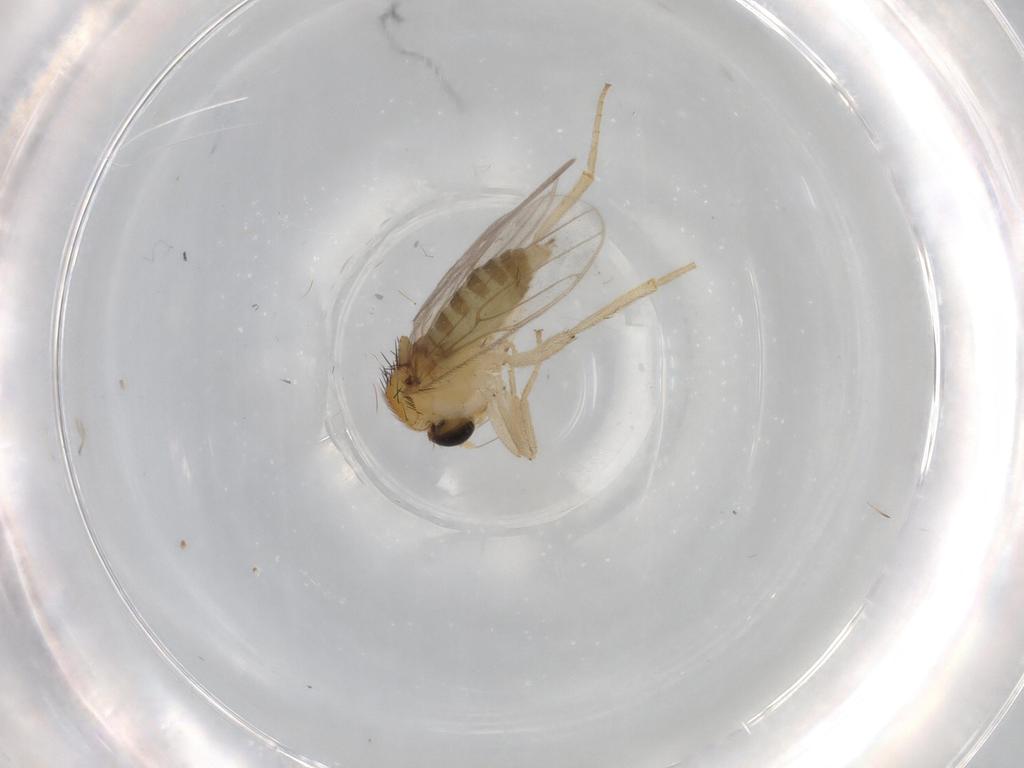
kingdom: Animalia
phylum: Arthropoda
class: Insecta
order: Diptera
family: Hybotidae
